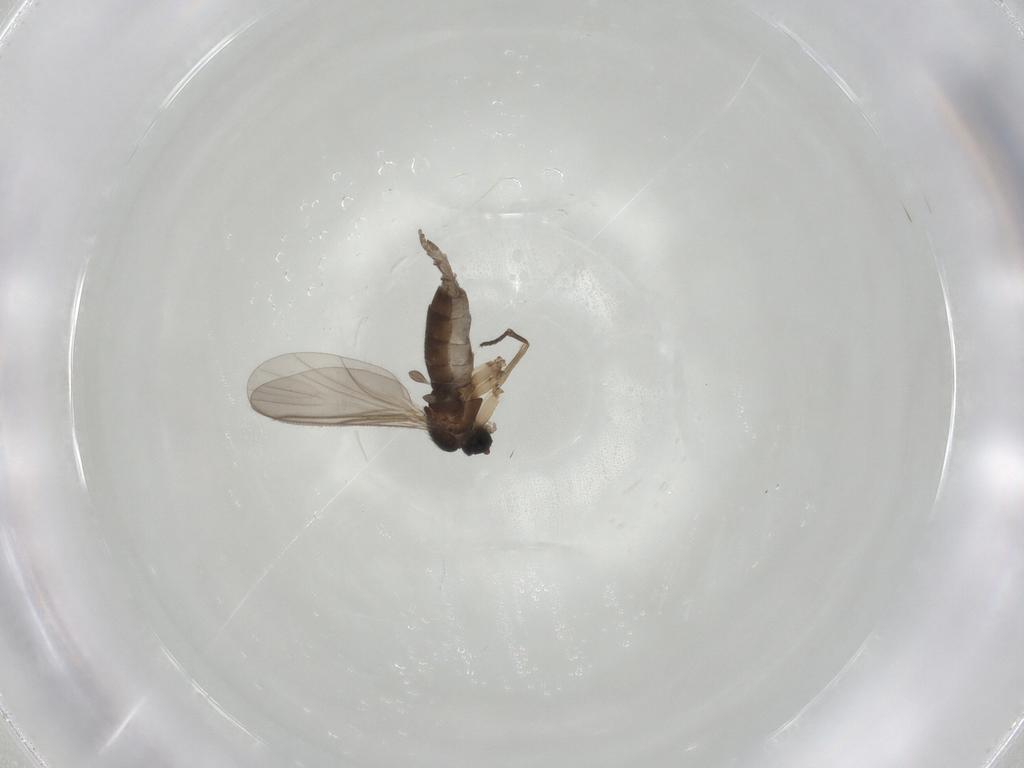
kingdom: Animalia
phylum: Arthropoda
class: Insecta
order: Diptera
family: Sciaridae
